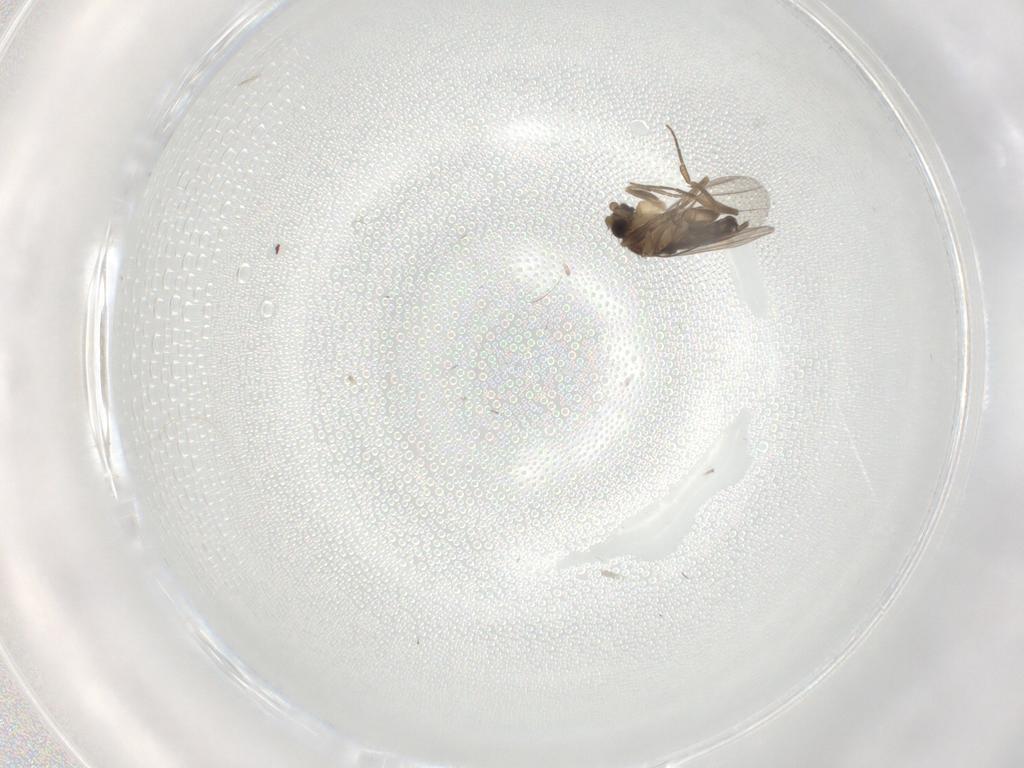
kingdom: Animalia
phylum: Arthropoda
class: Insecta
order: Diptera
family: Phoridae
